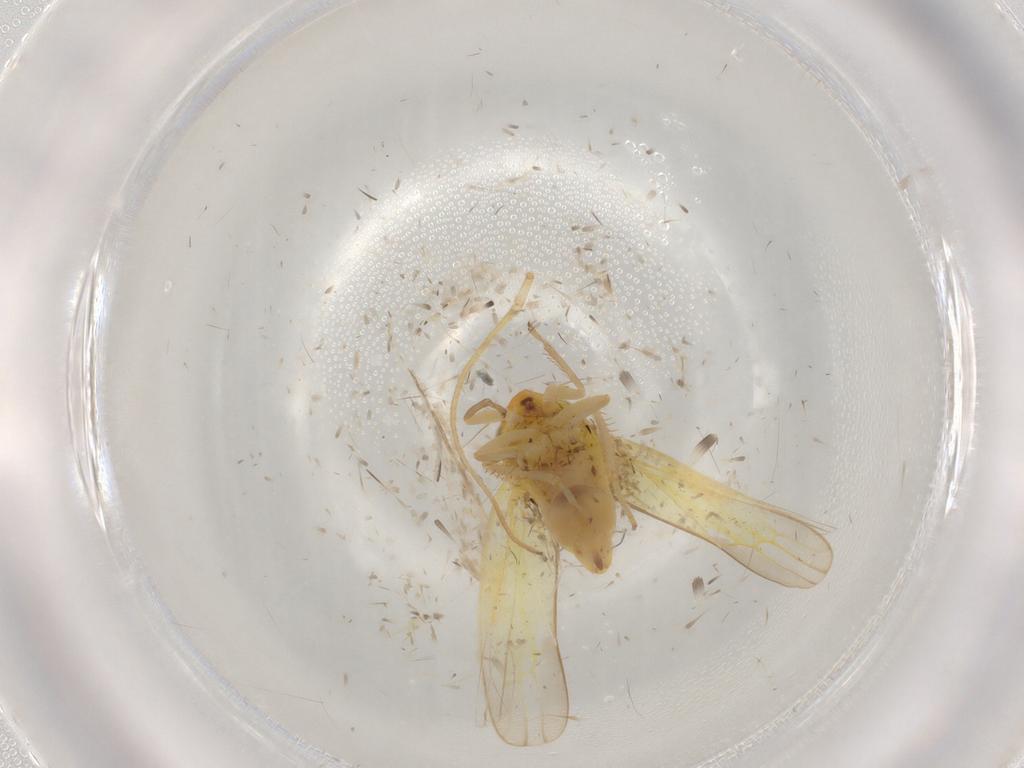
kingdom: Animalia
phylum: Arthropoda
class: Insecta
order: Hemiptera
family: Cicadellidae
